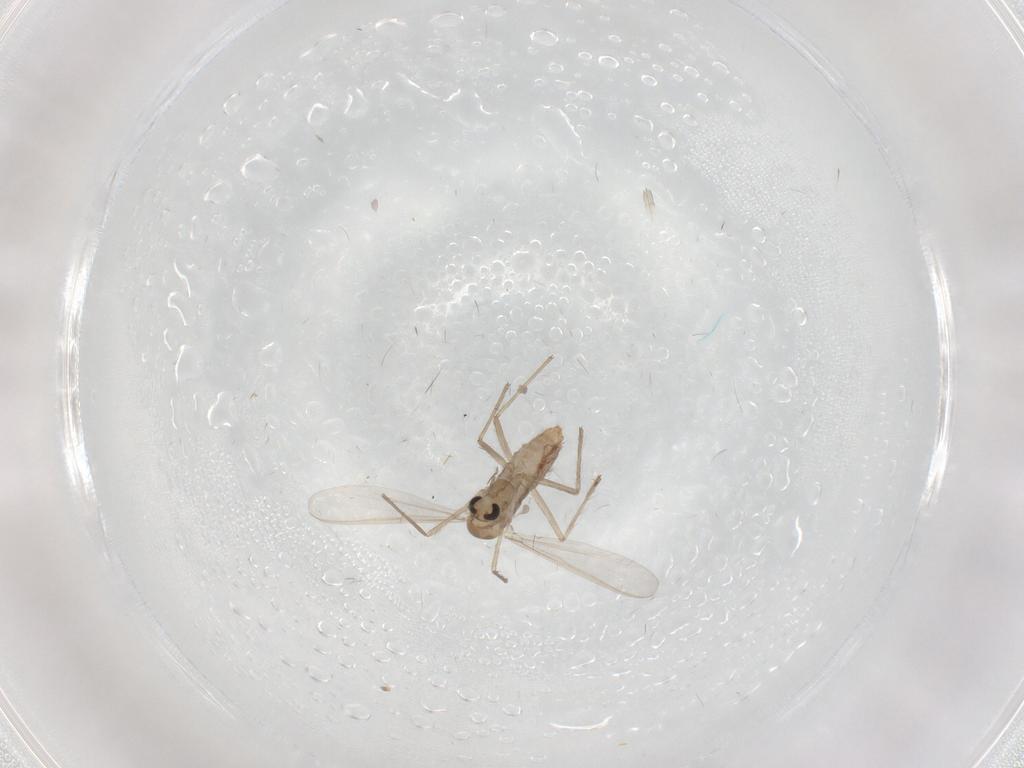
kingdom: Animalia
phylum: Arthropoda
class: Insecta
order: Diptera
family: Chironomidae
